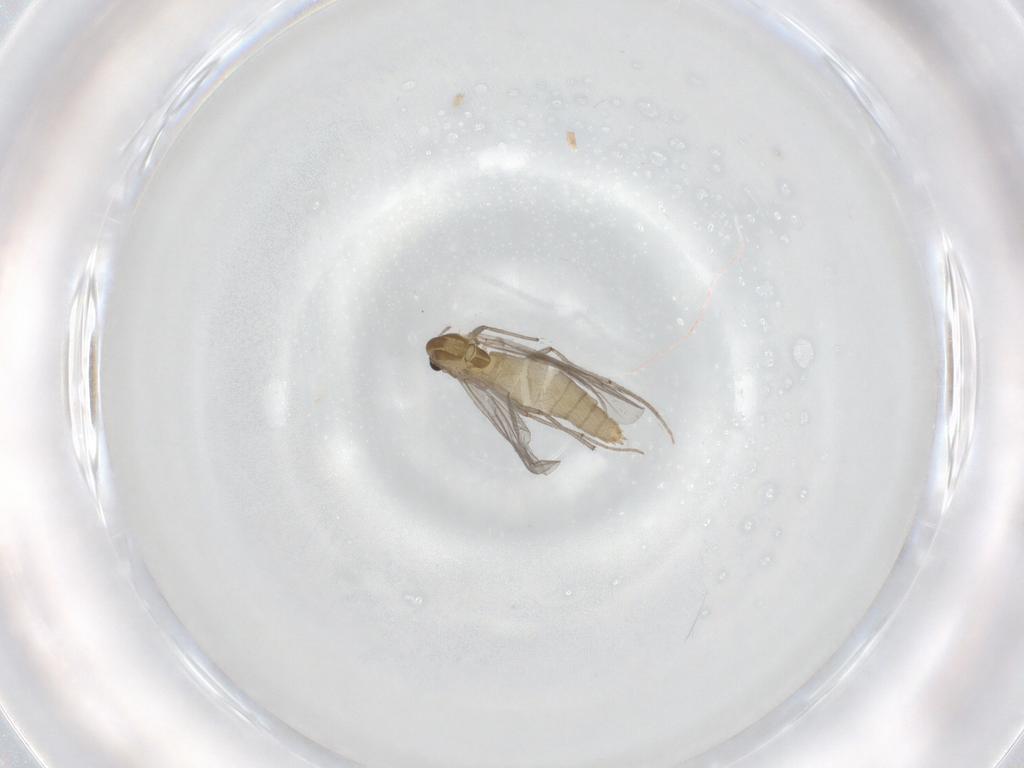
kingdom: Animalia
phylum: Arthropoda
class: Insecta
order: Diptera
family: Chironomidae
